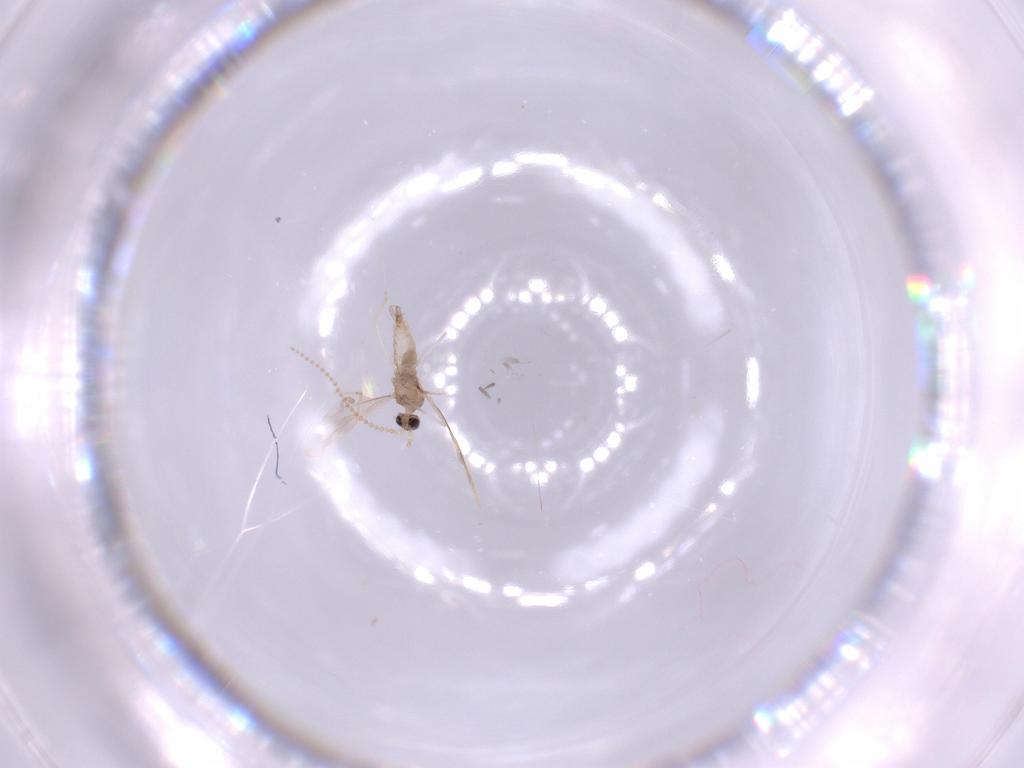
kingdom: Animalia
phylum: Arthropoda
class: Insecta
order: Diptera
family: Cecidomyiidae
